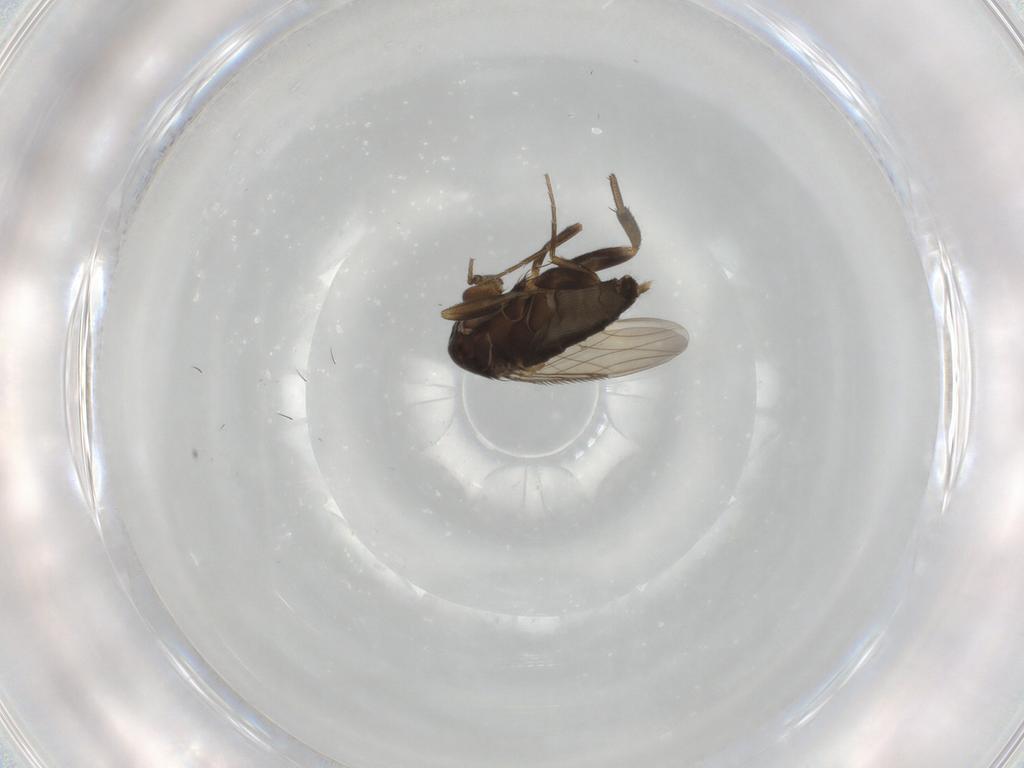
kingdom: Animalia
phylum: Arthropoda
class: Insecta
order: Diptera
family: Phoridae
